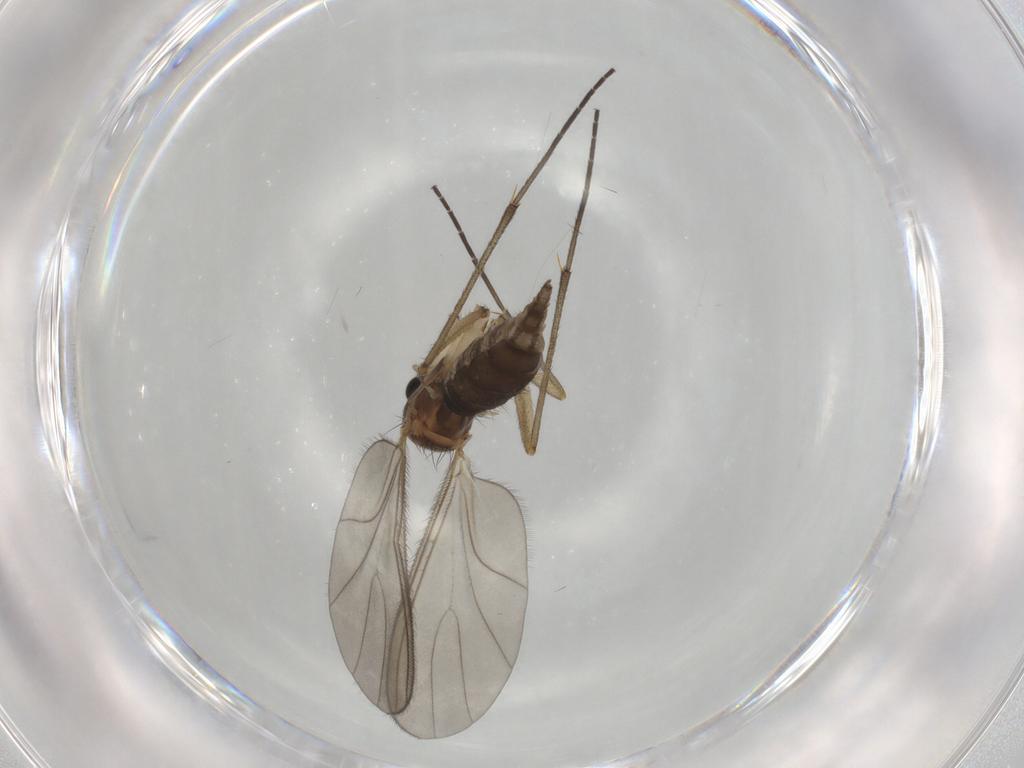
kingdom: Animalia
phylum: Arthropoda
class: Insecta
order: Diptera
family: Sciaridae
